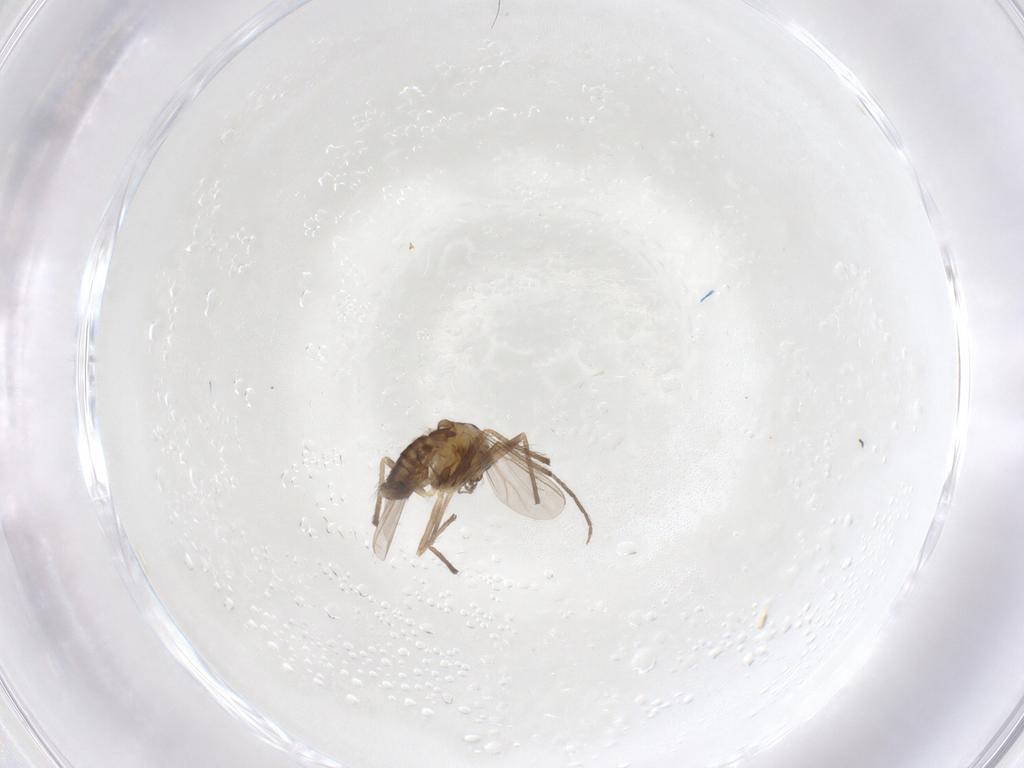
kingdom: Animalia
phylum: Arthropoda
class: Insecta
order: Diptera
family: Chironomidae
